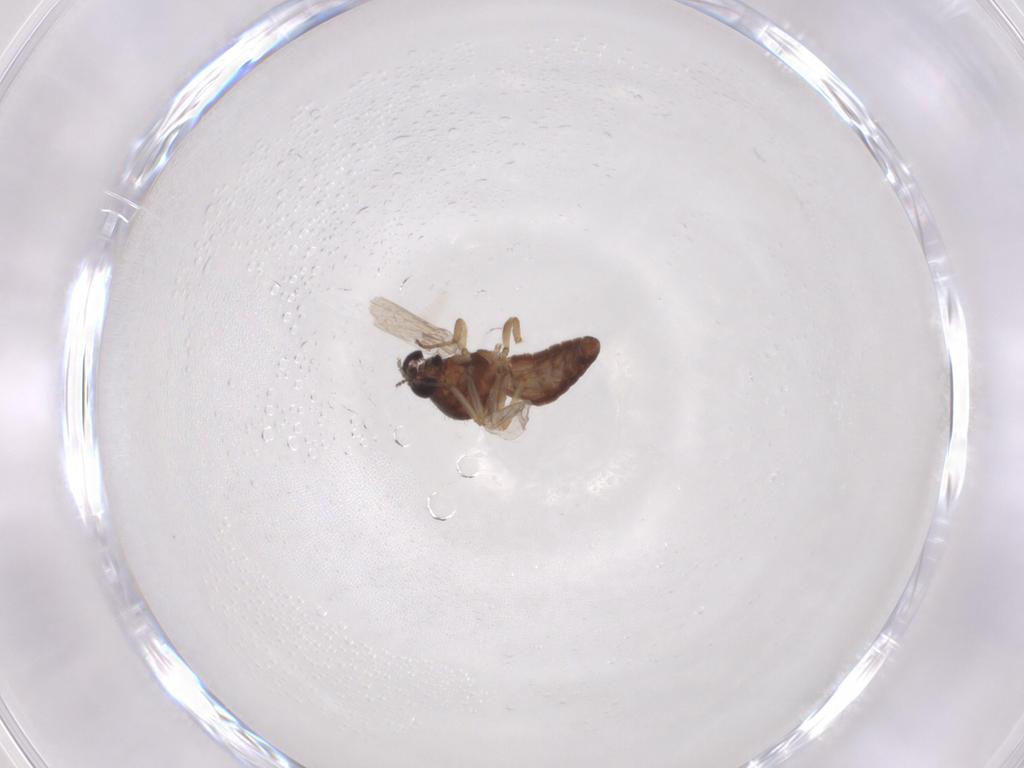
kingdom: Animalia
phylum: Arthropoda
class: Insecta
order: Diptera
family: Ceratopogonidae
